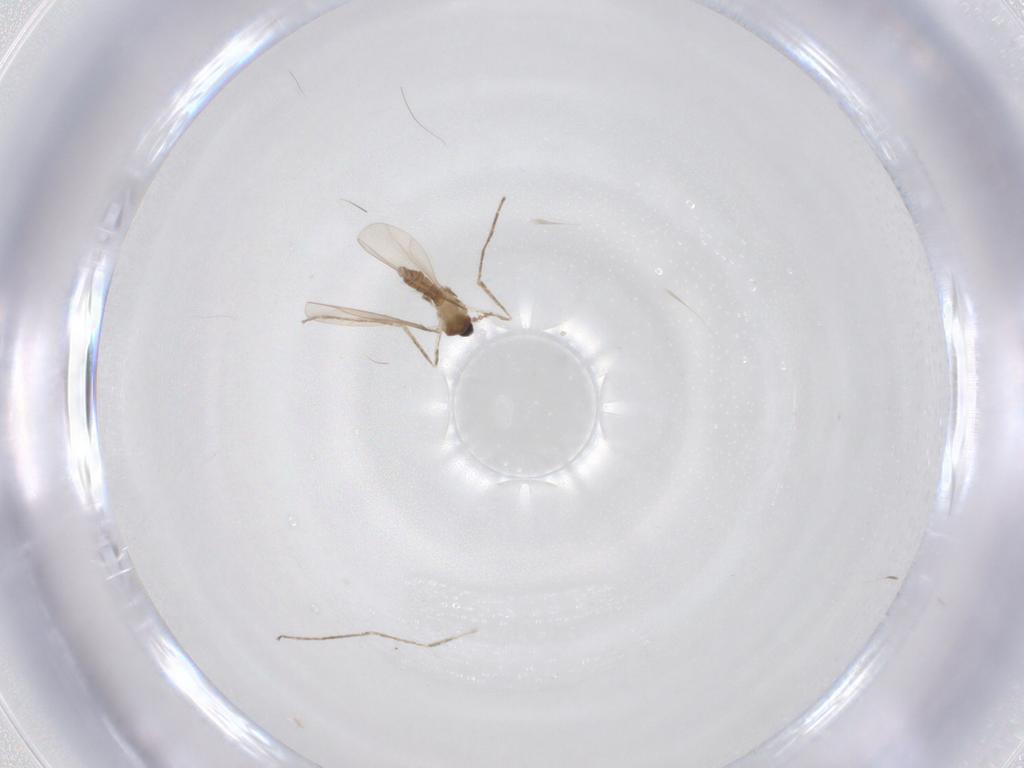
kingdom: Animalia
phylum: Arthropoda
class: Insecta
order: Diptera
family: Cecidomyiidae
